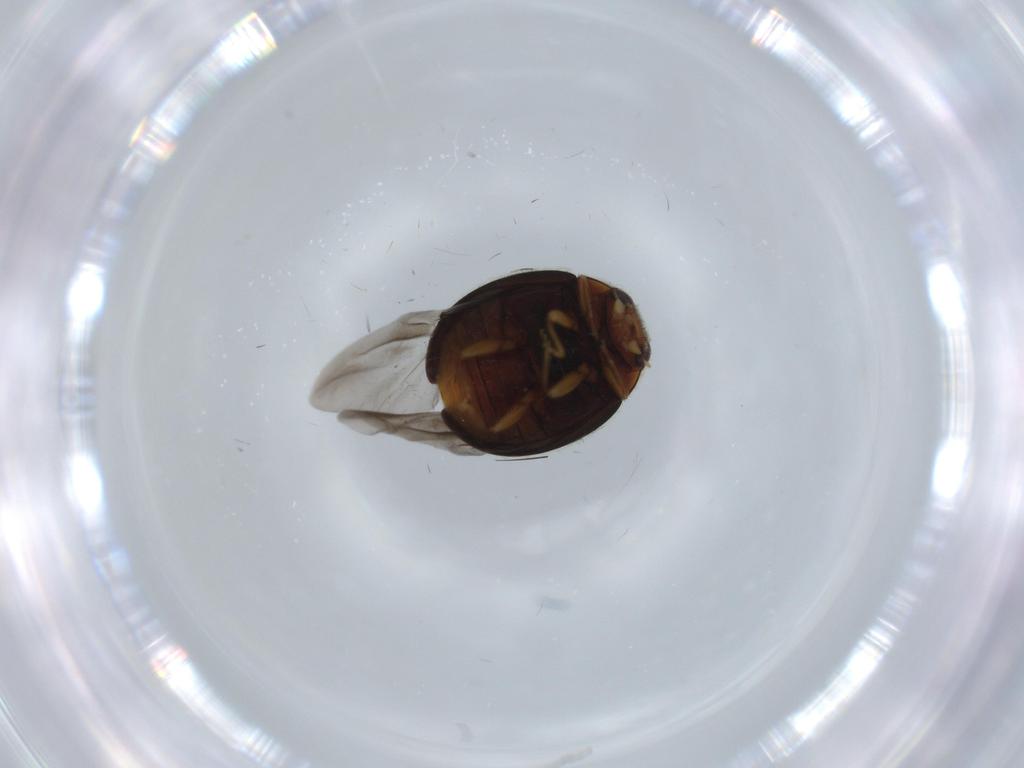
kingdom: Animalia
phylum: Arthropoda
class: Insecta
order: Coleoptera
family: Coccinellidae
